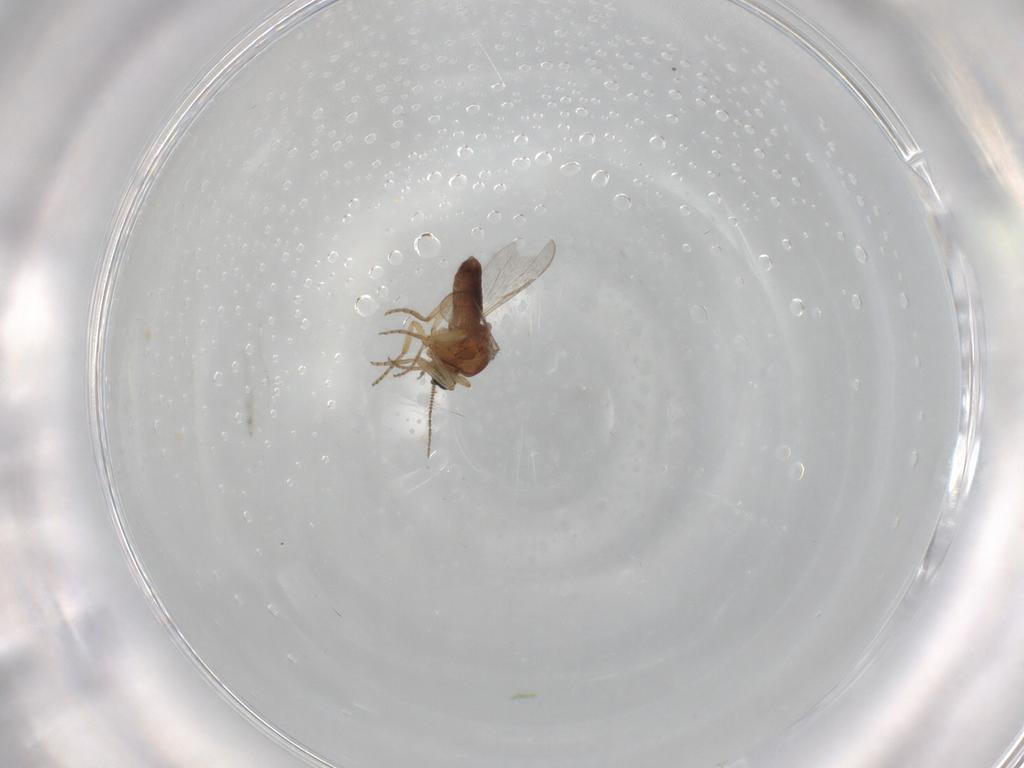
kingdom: Animalia
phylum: Arthropoda
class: Insecta
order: Diptera
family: Cecidomyiidae
